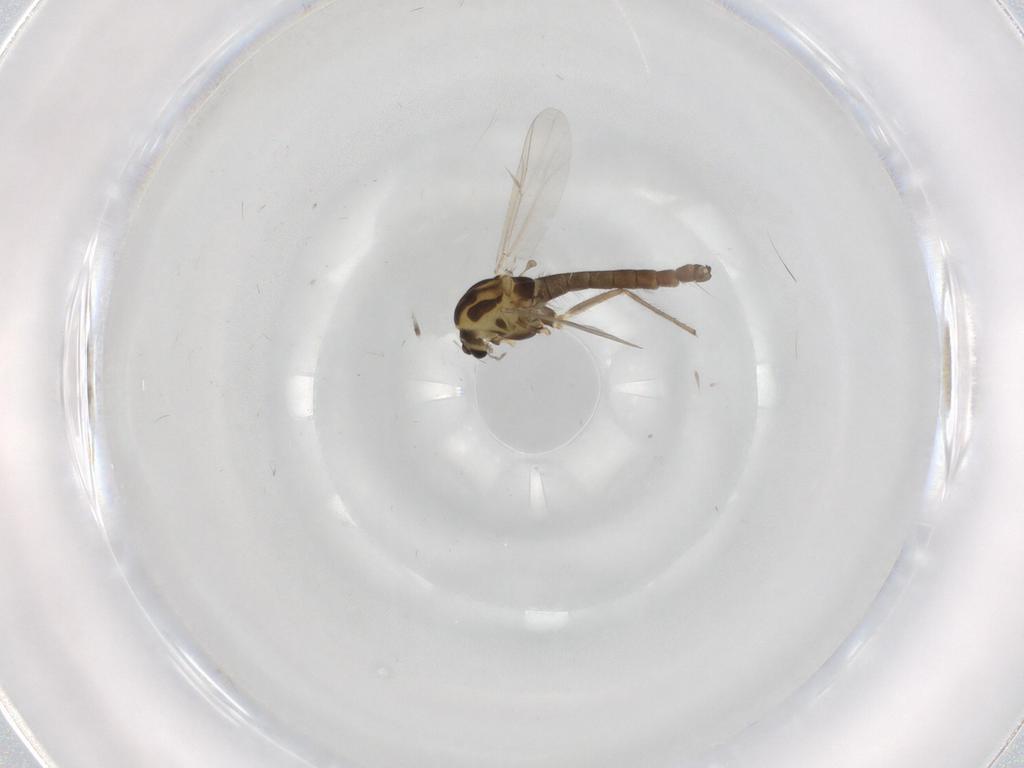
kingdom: Animalia
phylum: Arthropoda
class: Insecta
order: Diptera
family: Chironomidae
